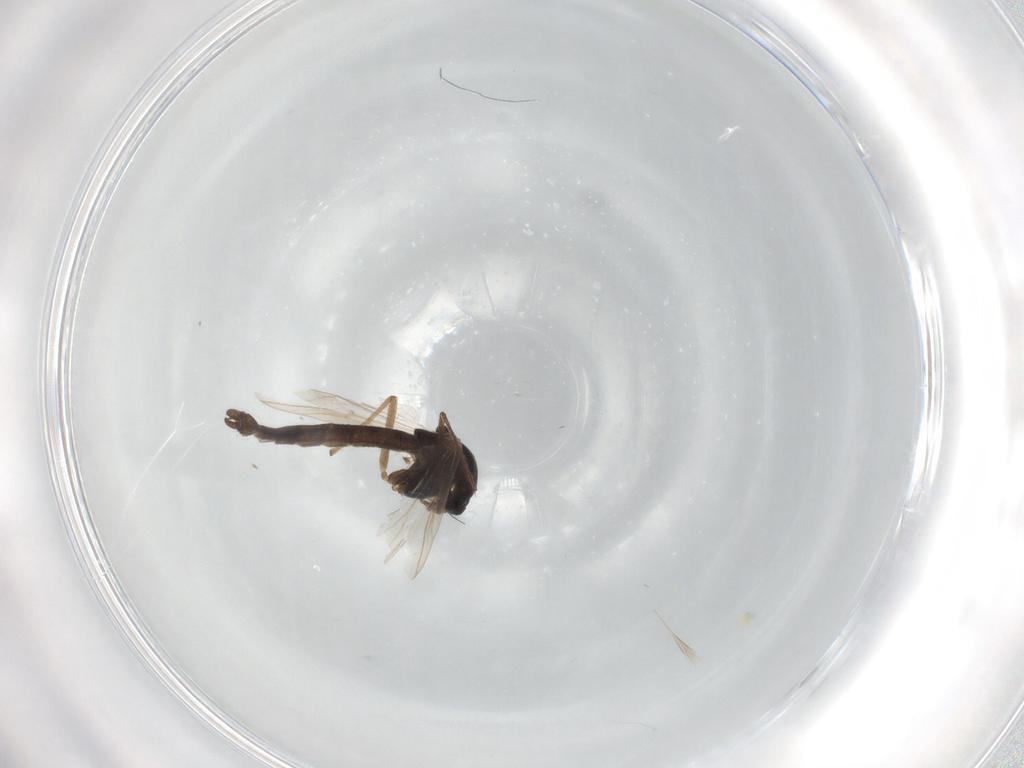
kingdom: Animalia
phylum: Arthropoda
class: Insecta
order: Diptera
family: Chironomidae
